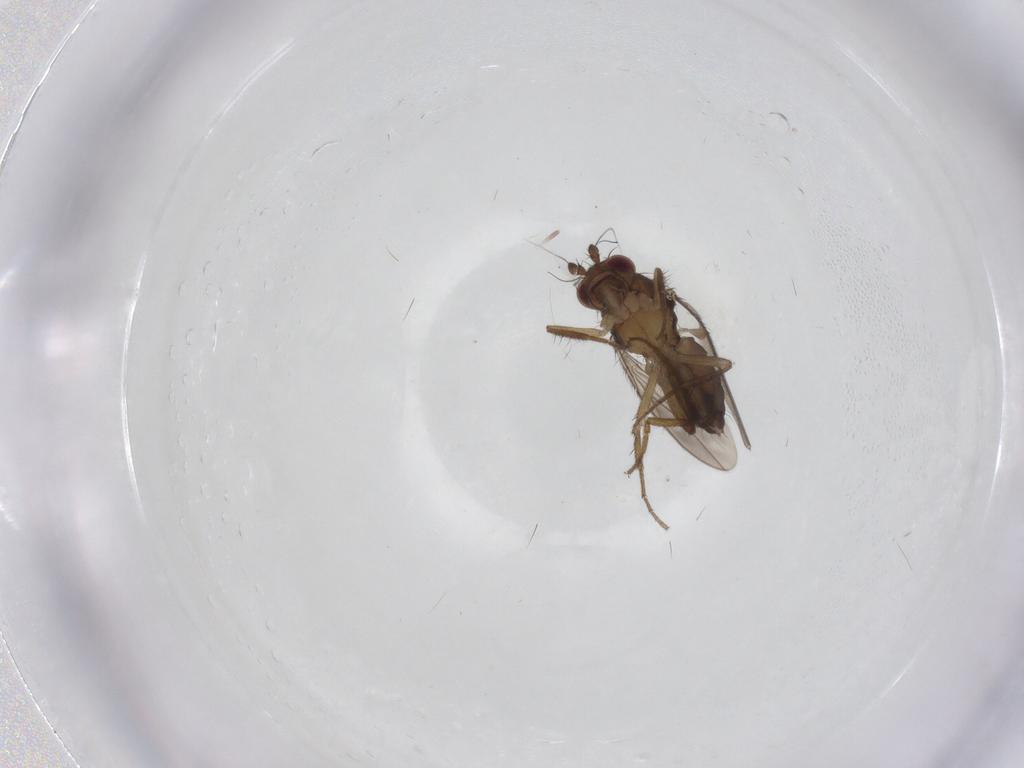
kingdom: Animalia
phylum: Arthropoda
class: Insecta
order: Diptera
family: Sphaeroceridae
